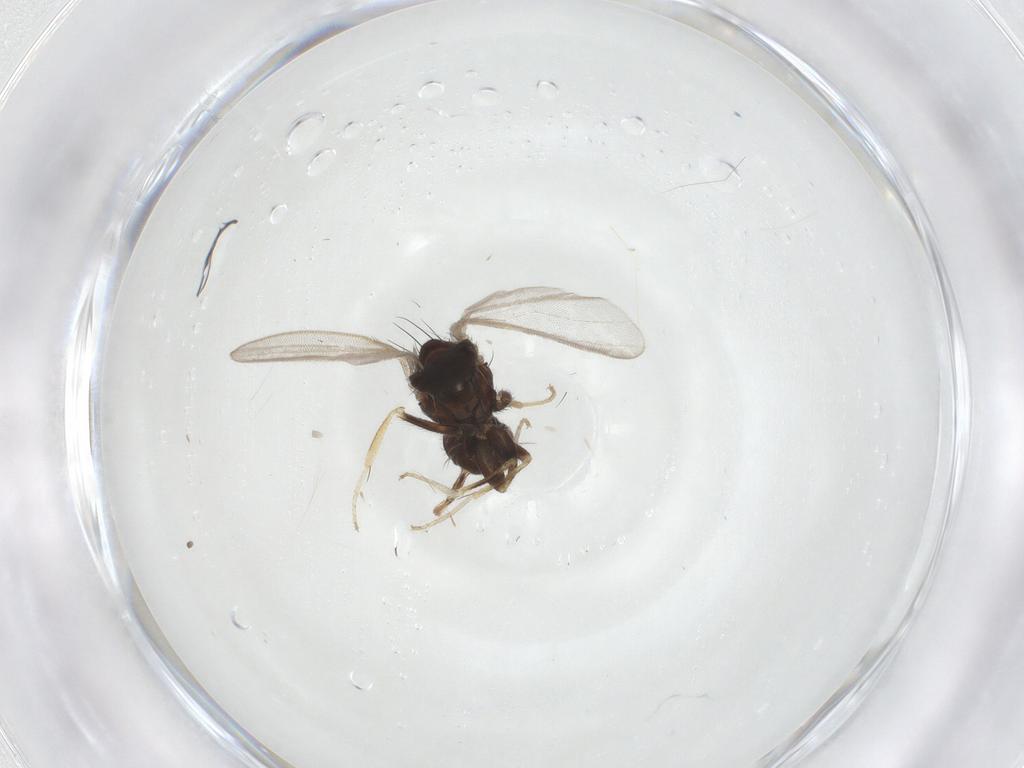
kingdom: Animalia
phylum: Arthropoda
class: Insecta
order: Diptera
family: Milichiidae
